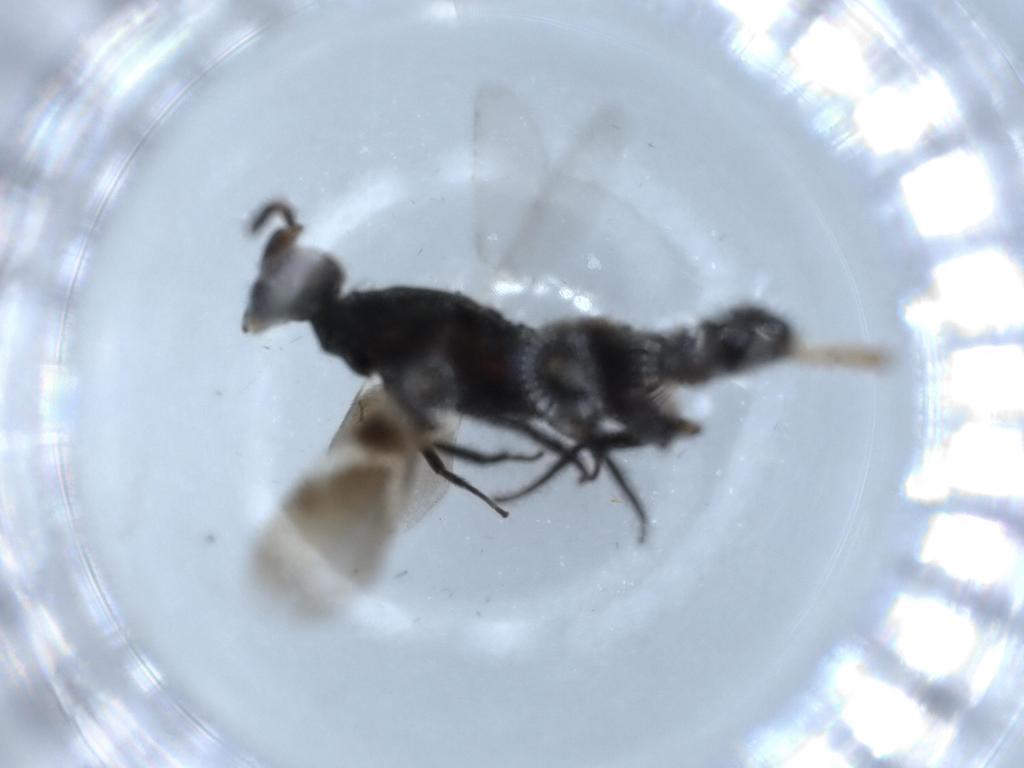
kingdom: Animalia
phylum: Arthropoda
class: Insecta
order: Hymenoptera
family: Eupelmidae
